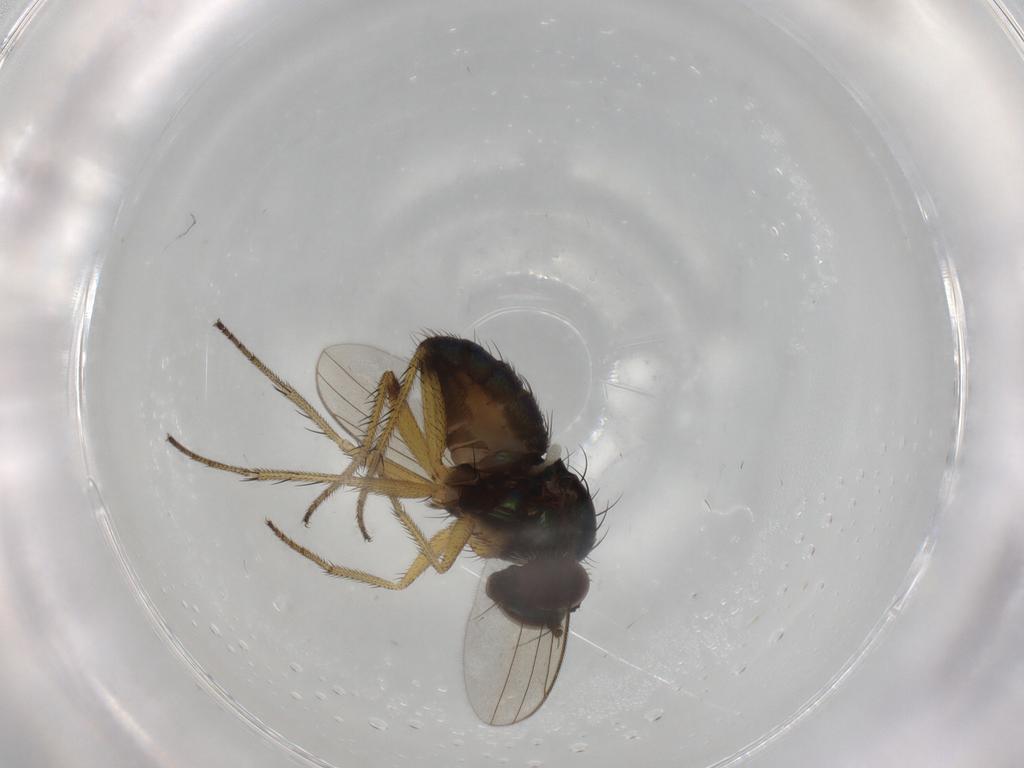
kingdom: Animalia
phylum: Arthropoda
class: Insecta
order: Diptera
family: Dolichopodidae
